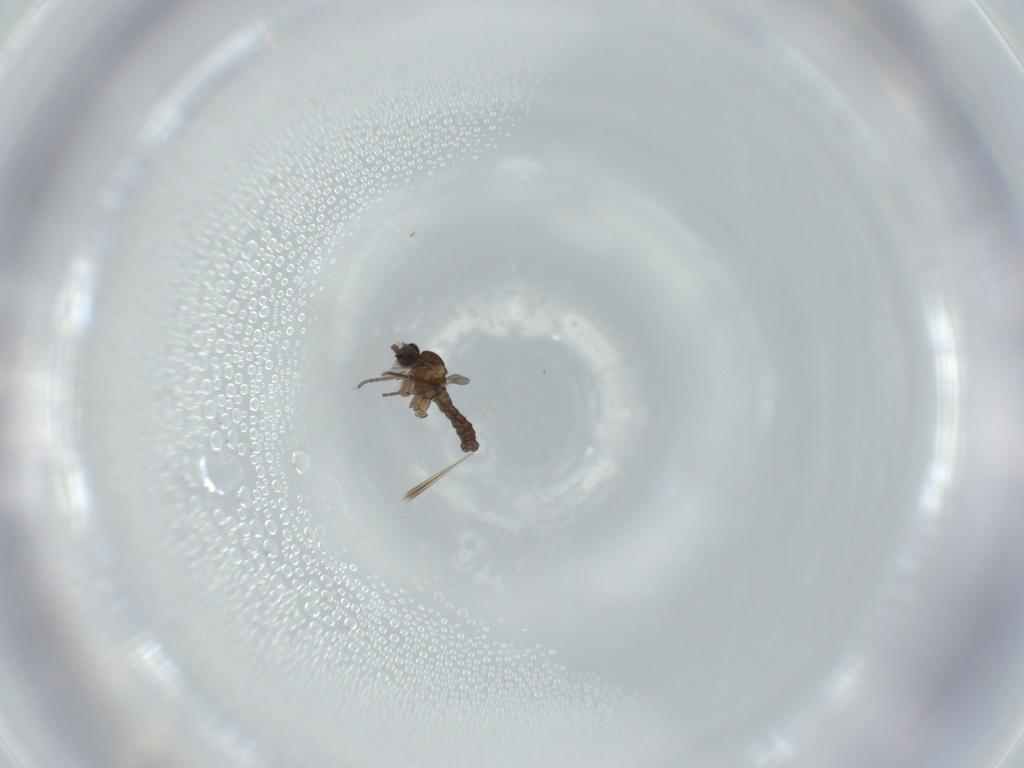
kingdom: Animalia
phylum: Arthropoda
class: Insecta
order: Diptera
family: Cecidomyiidae
